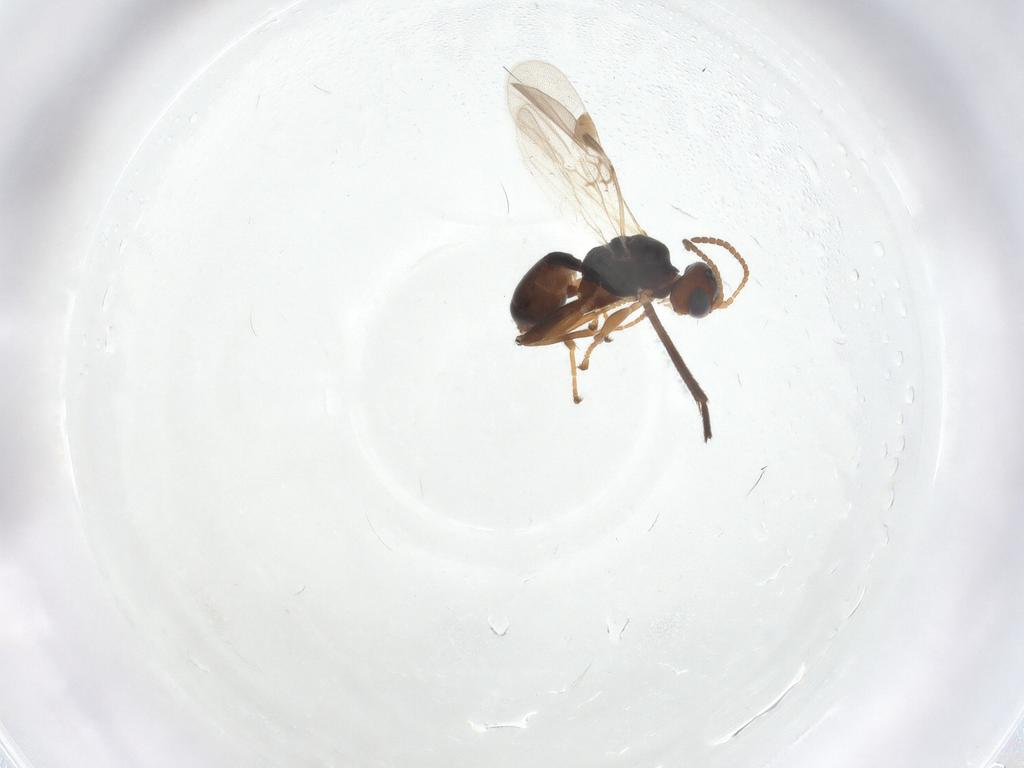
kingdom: Animalia
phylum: Arthropoda
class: Insecta
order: Hymenoptera
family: Braconidae
